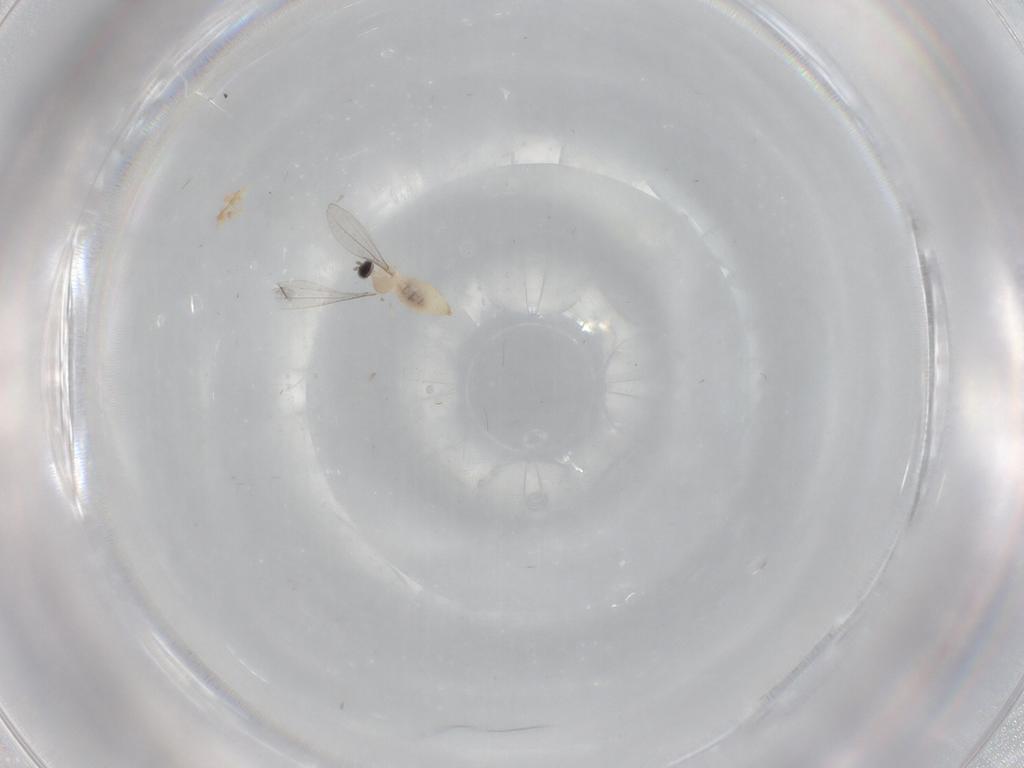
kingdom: Animalia
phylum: Arthropoda
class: Insecta
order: Diptera
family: Cecidomyiidae
